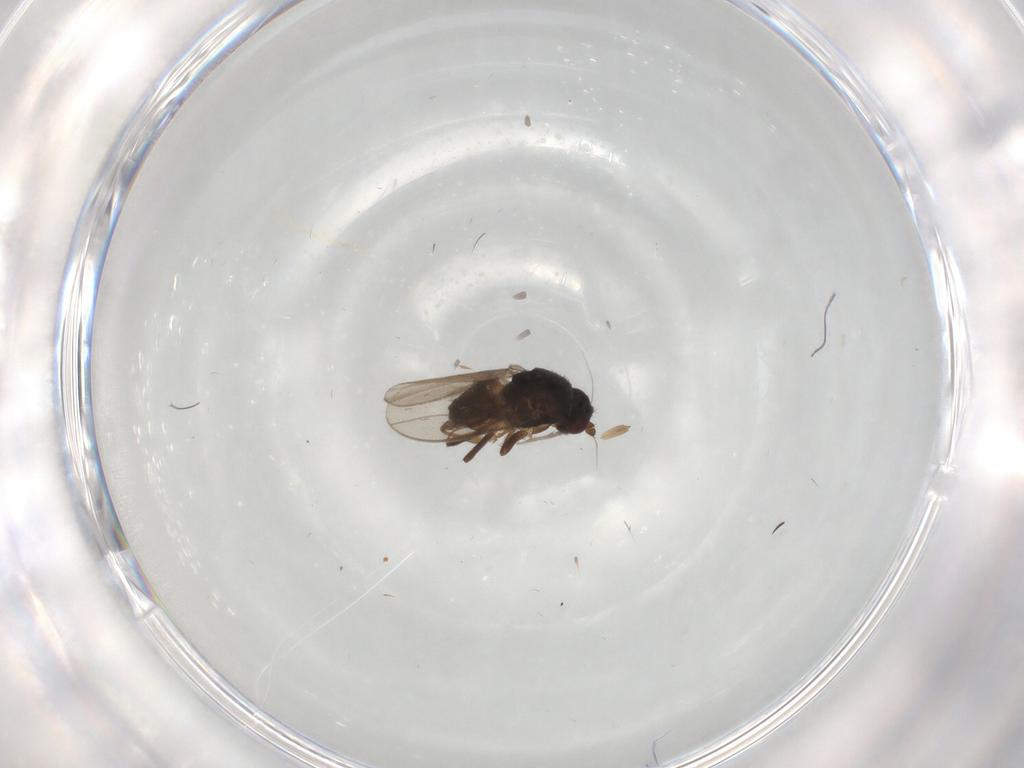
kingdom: Animalia
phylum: Arthropoda
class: Insecta
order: Diptera
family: Sphaeroceridae
